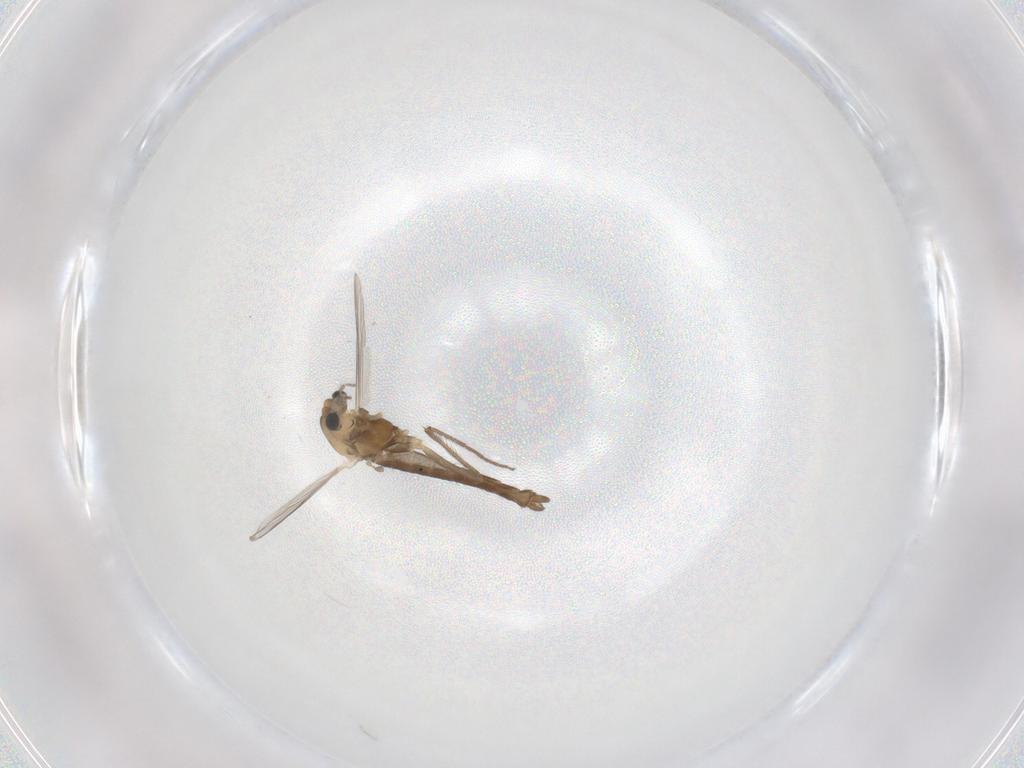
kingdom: Animalia
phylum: Arthropoda
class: Insecta
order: Diptera
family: Chironomidae
